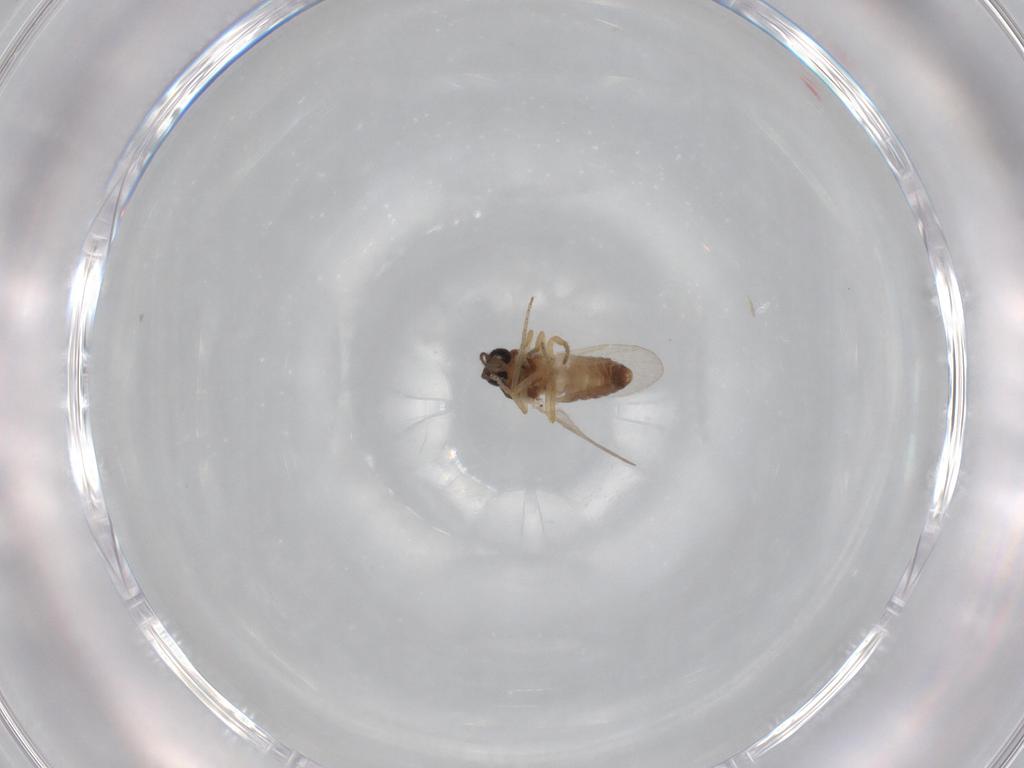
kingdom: Animalia
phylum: Arthropoda
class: Insecta
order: Diptera
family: Ceratopogonidae
